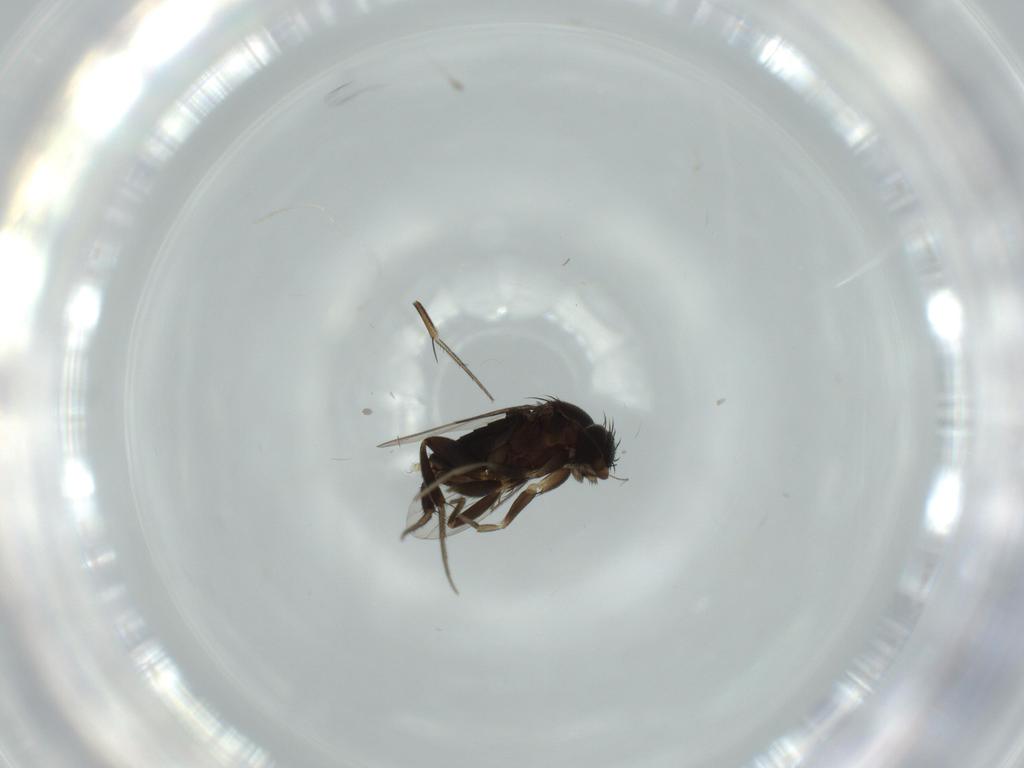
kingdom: Animalia
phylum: Arthropoda
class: Insecta
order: Diptera
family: Phoridae
